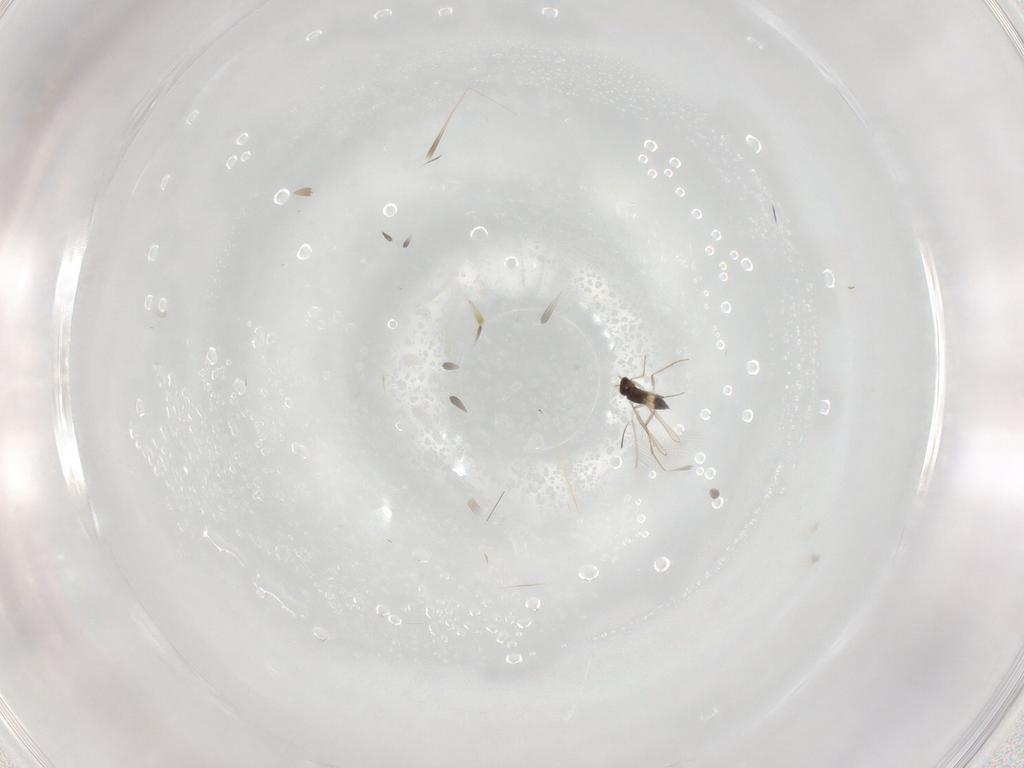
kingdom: Animalia
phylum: Arthropoda
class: Insecta
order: Hymenoptera
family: Mymaridae
